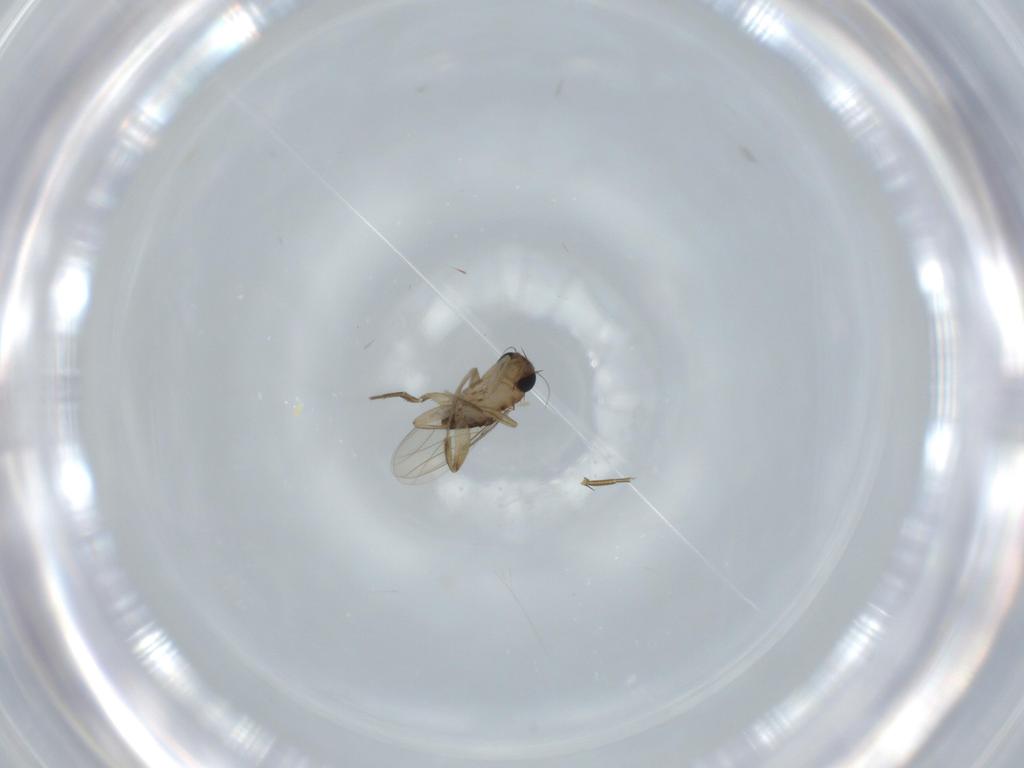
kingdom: Animalia
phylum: Arthropoda
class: Insecta
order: Diptera
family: Phoridae
